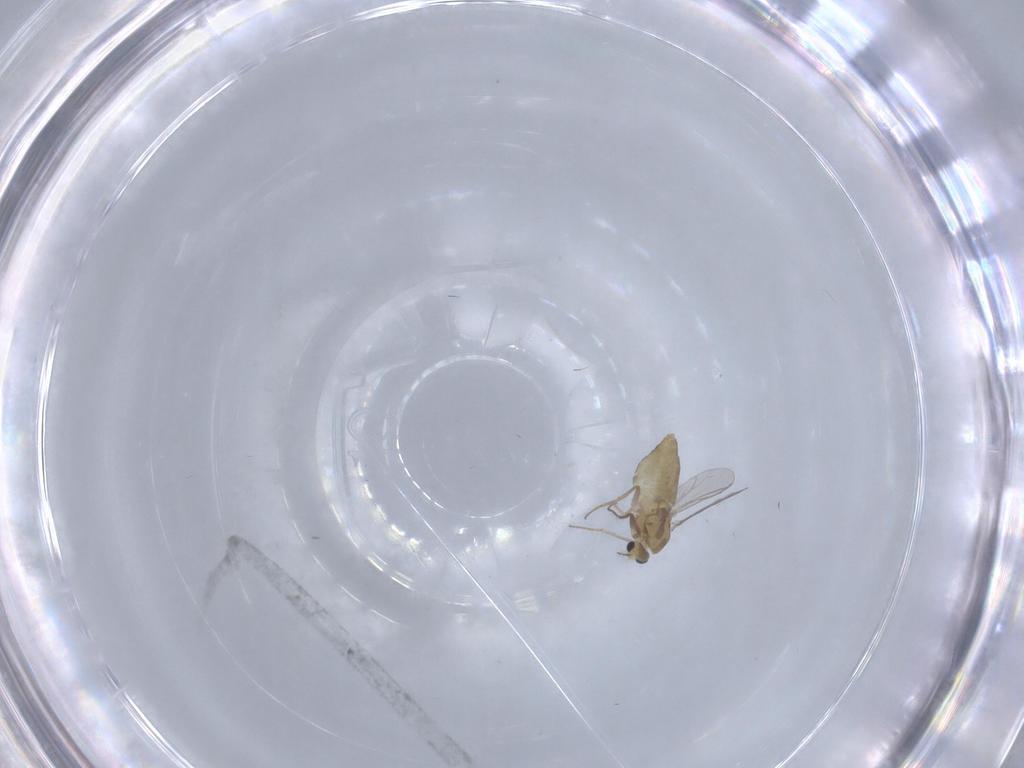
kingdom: Animalia
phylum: Arthropoda
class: Insecta
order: Diptera
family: Chironomidae
